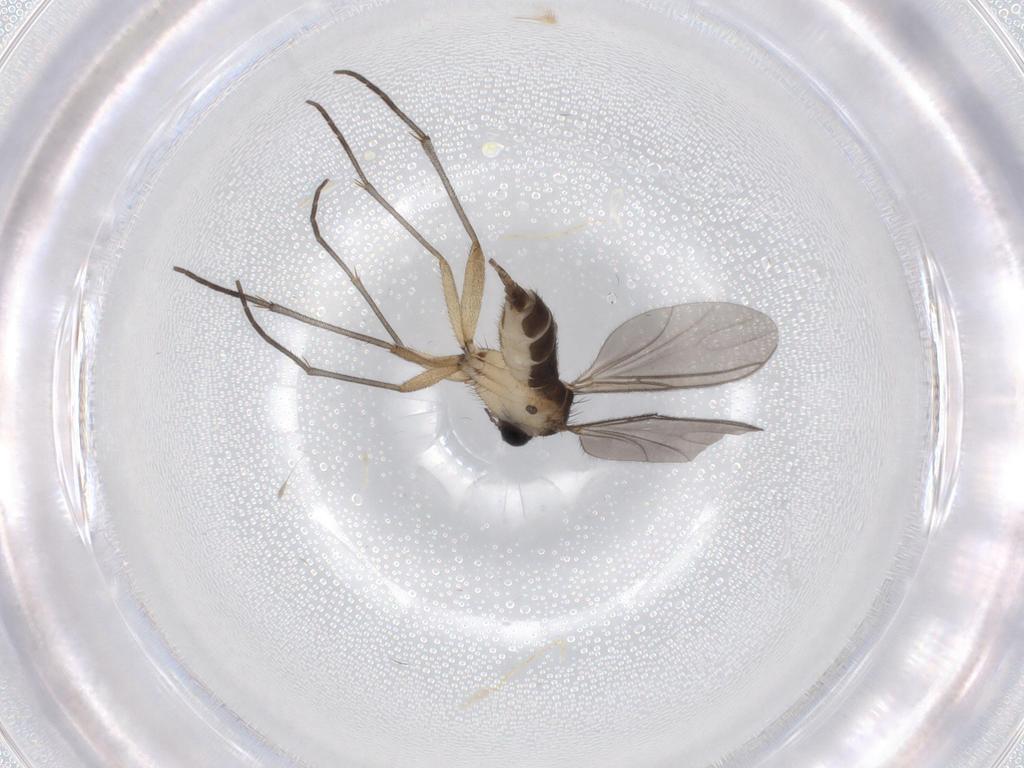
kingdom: Animalia
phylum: Arthropoda
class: Insecta
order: Diptera
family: Sciaridae
